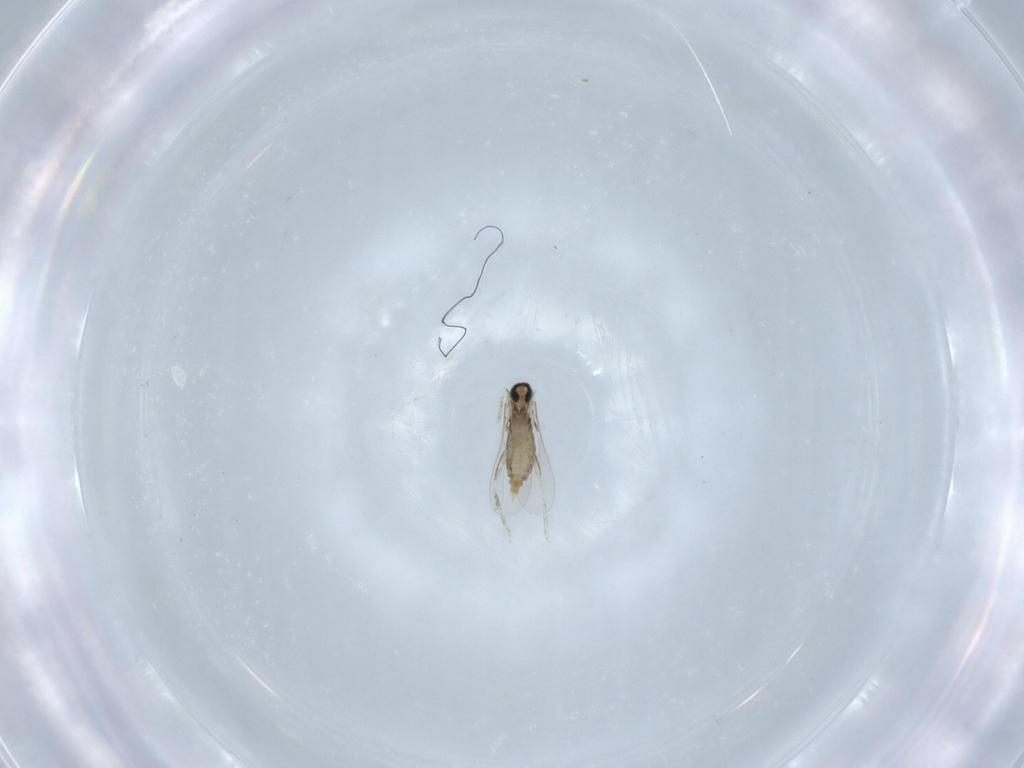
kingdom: Animalia
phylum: Arthropoda
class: Insecta
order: Diptera
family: Cecidomyiidae
